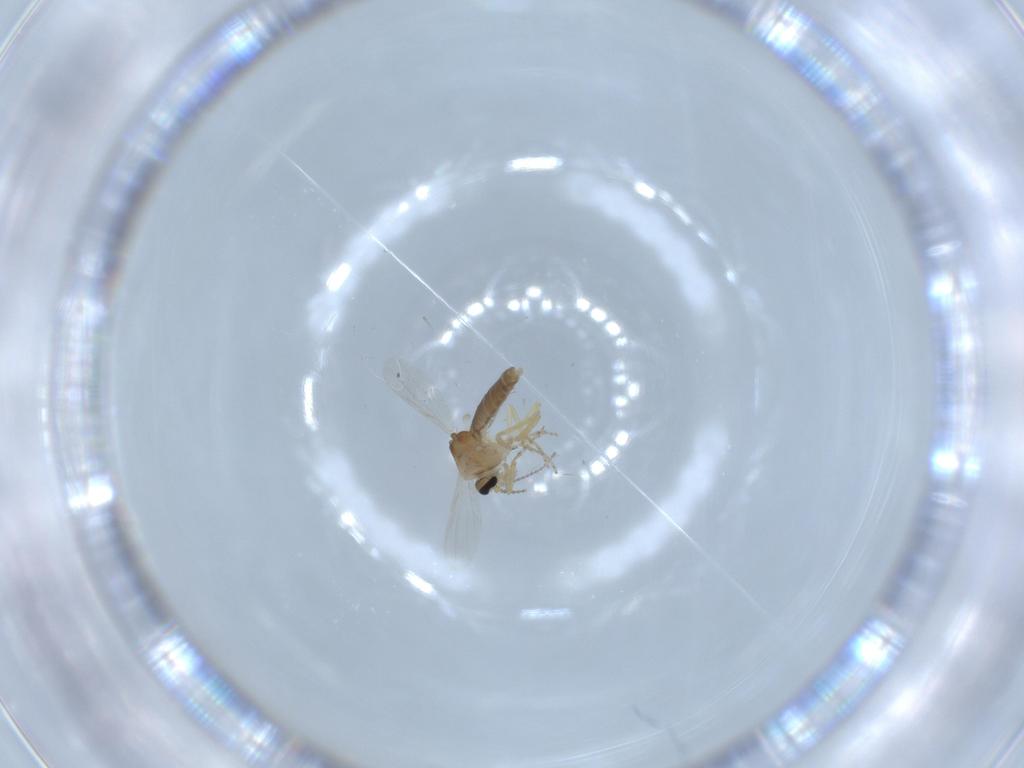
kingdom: Animalia
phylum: Arthropoda
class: Insecta
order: Diptera
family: Ceratopogonidae
